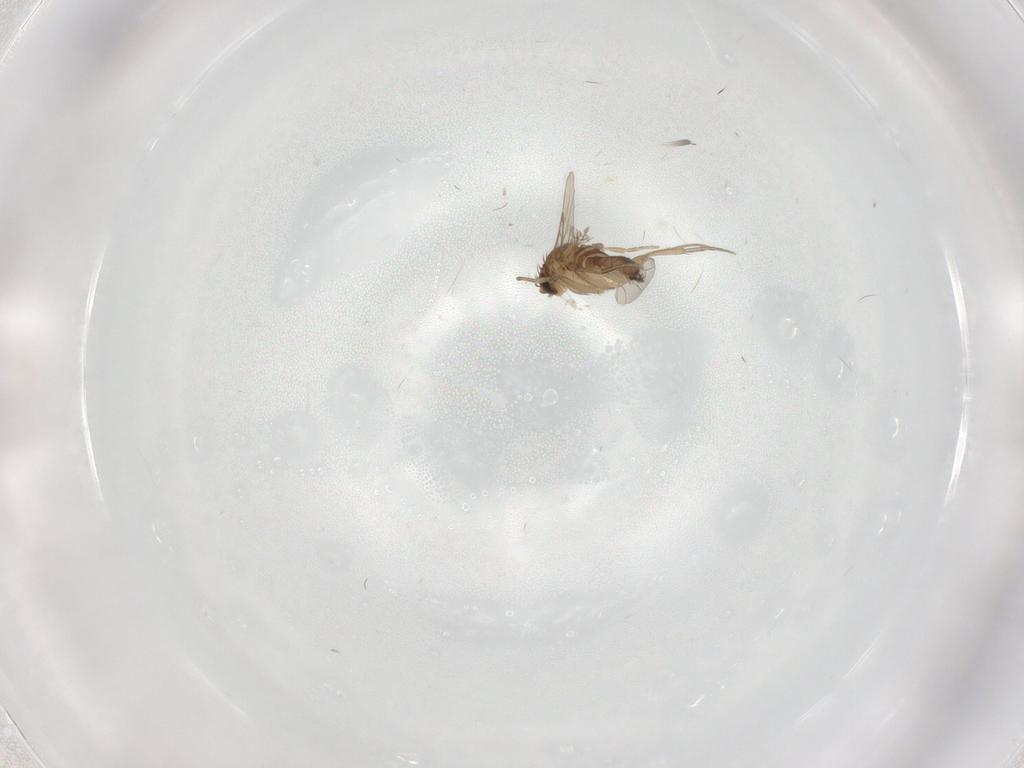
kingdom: Animalia
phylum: Arthropoda
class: Insecta
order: Diptera
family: Phoridae
